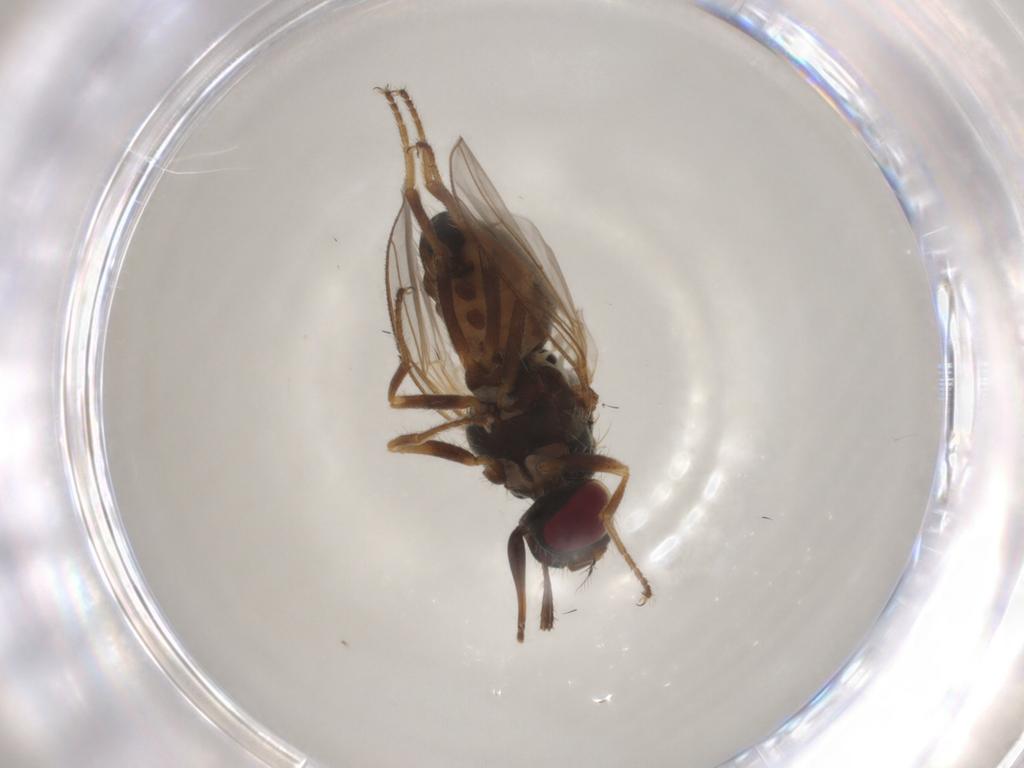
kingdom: Animalia
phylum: Arthropoda
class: Insecta
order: Diptera
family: Muscidae
